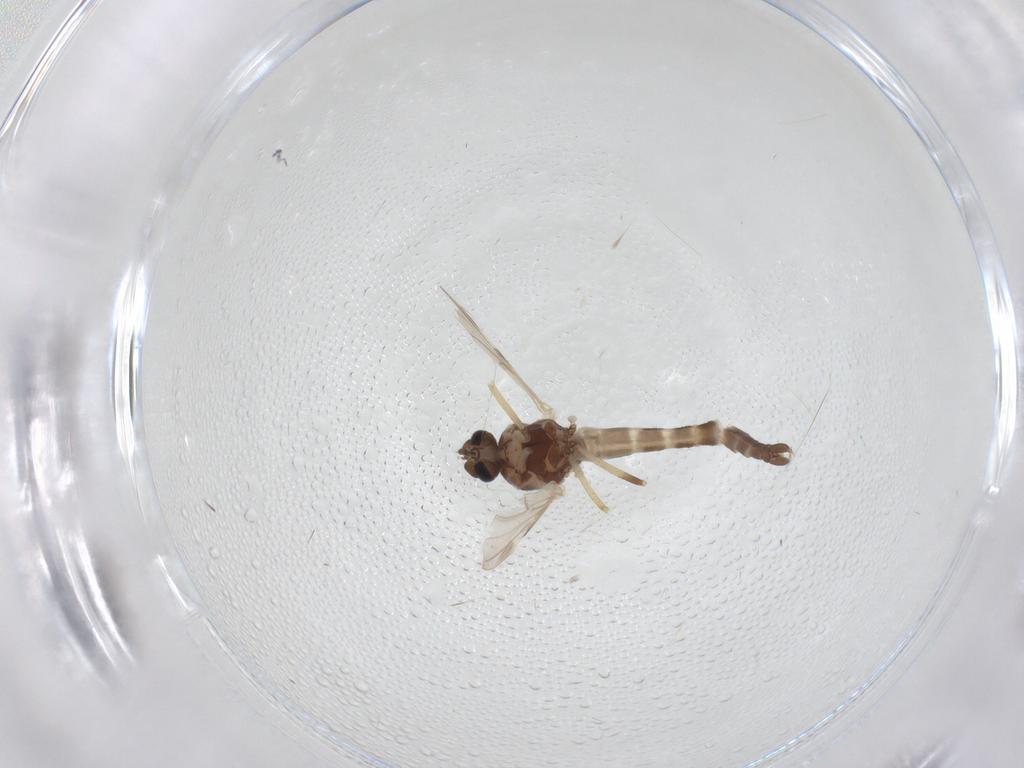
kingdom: Animalia
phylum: Arthropoda
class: Insecta
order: Diptera
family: Ceratopogonidae
